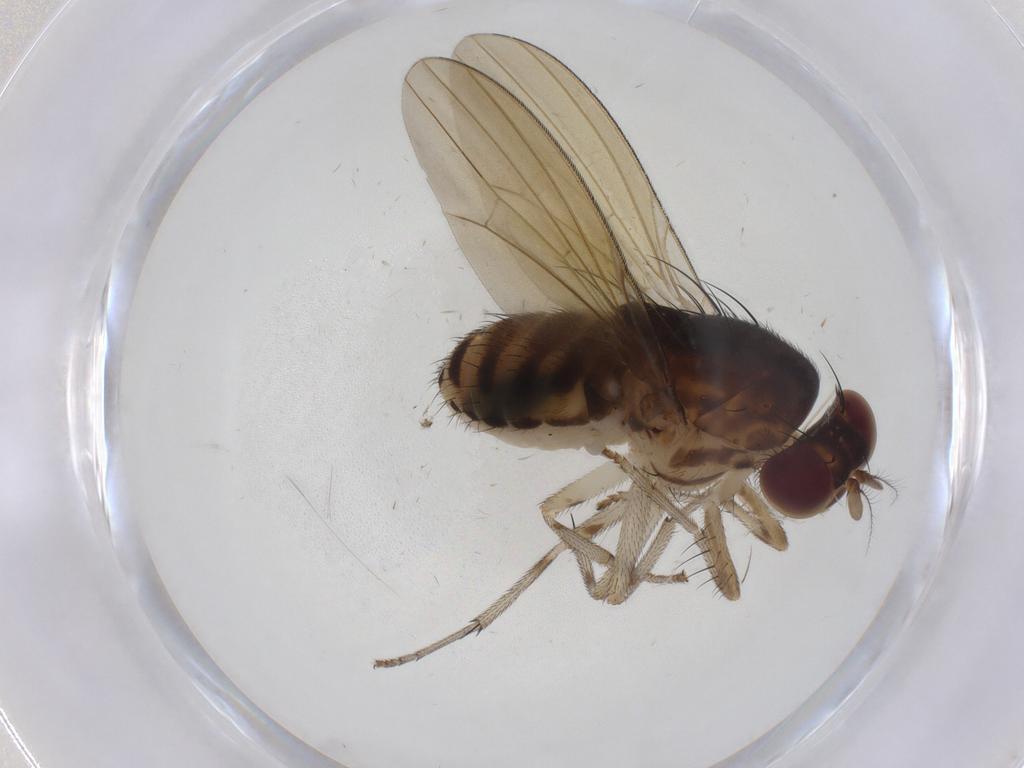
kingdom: Animalia
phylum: Arthropoda
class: Insecta
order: Diptera
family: Lauxaniidae
